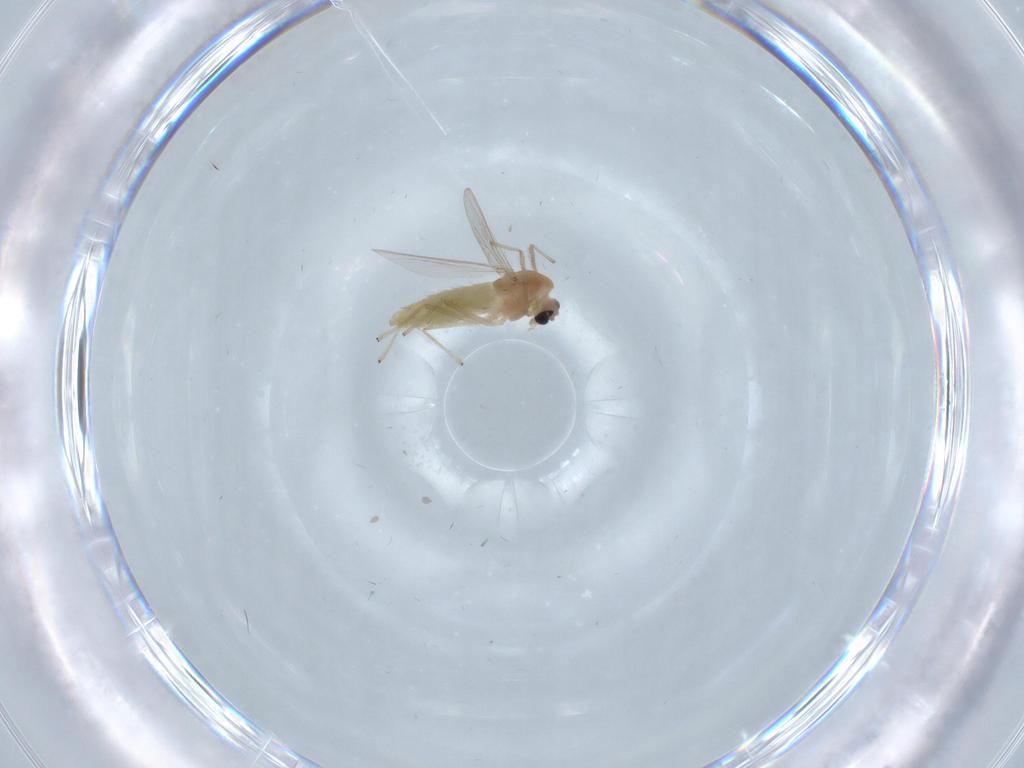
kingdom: Animalia
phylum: Arthropoda
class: Insecta
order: Diptera
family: Chironomidae
